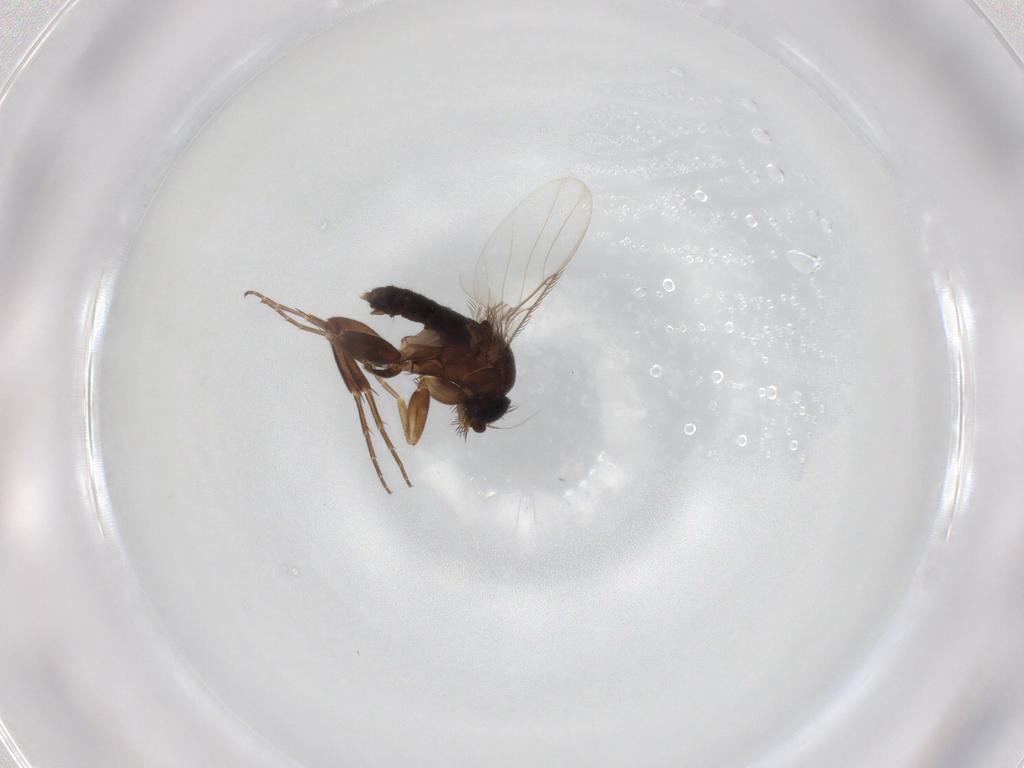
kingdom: Animalia
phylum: Arthropoda
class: Insecta
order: Diptera
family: Phoridae
